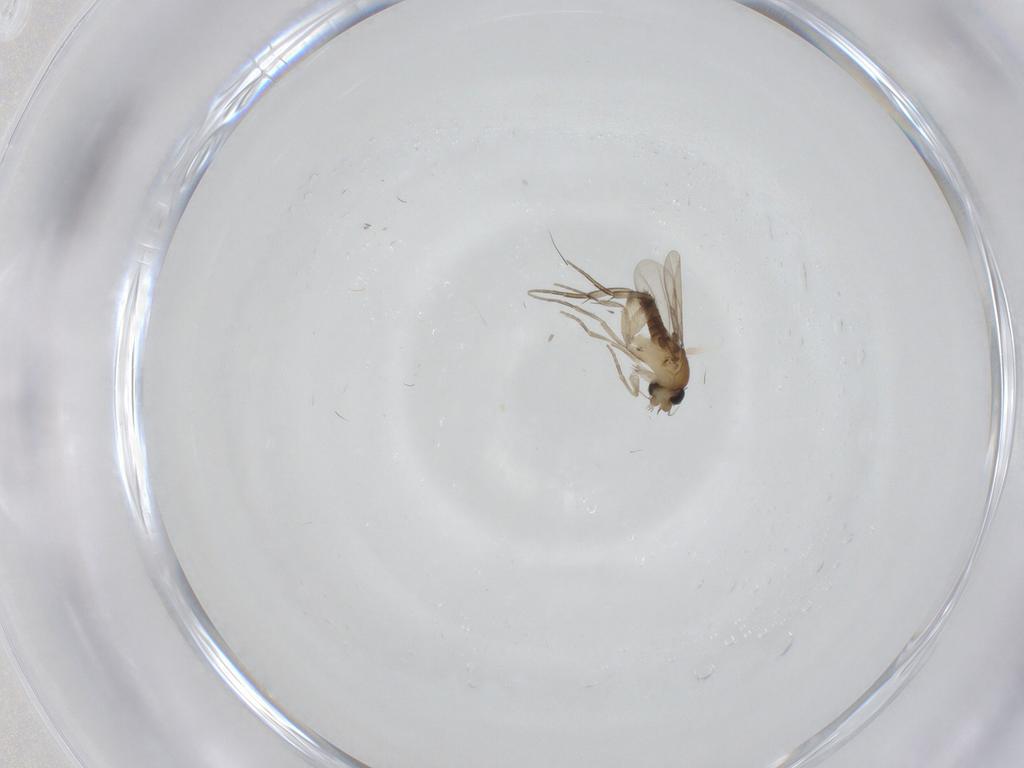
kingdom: Animalia
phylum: Arthropoda
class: Insecta
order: Diptera
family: Phoridae
